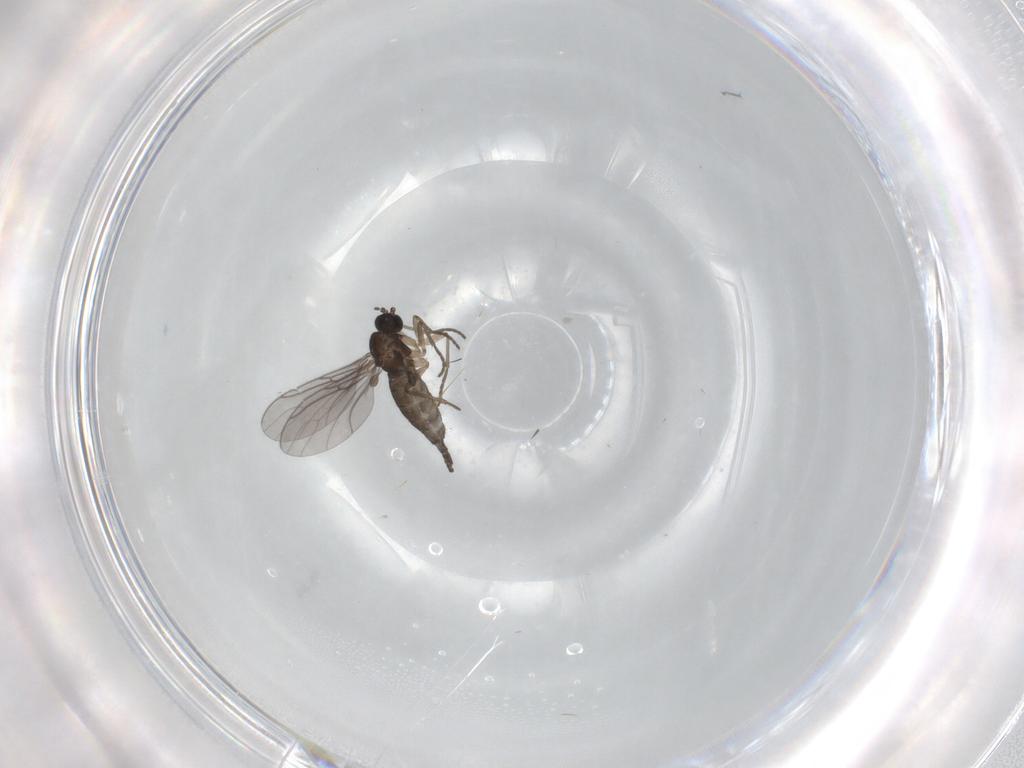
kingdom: Animalia
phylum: Arthropoda
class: Insecta
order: Diptera
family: Sciaridae
